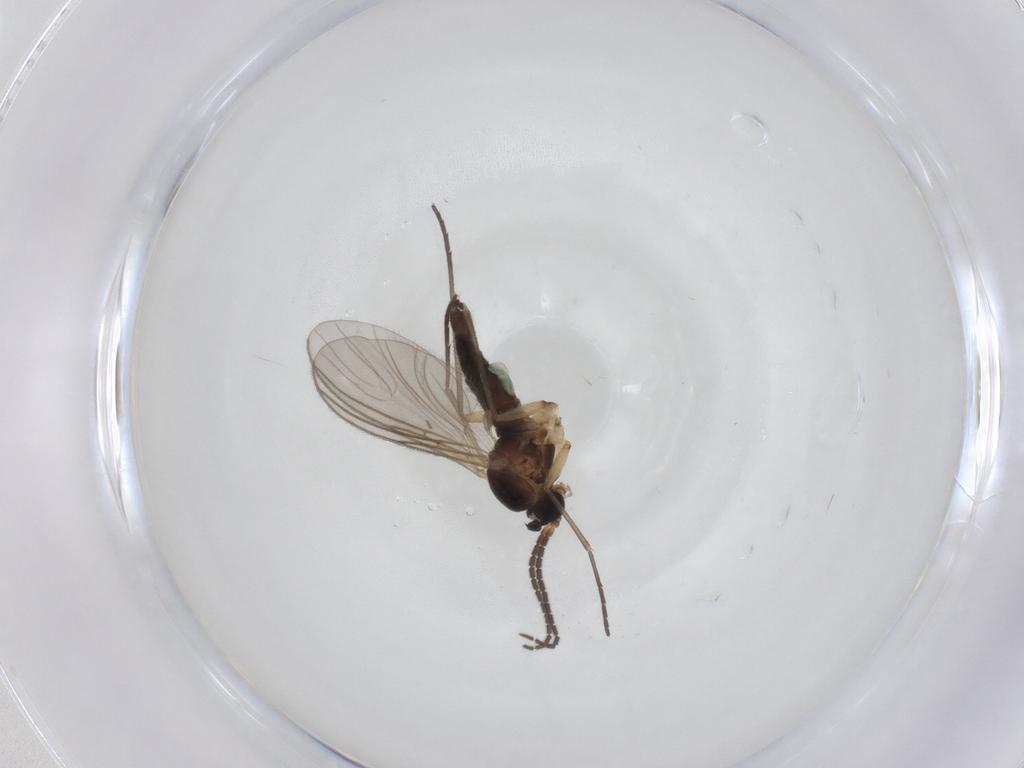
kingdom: Animalia
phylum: Arthropoda
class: Insecta
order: Diptera
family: Sciaridae
